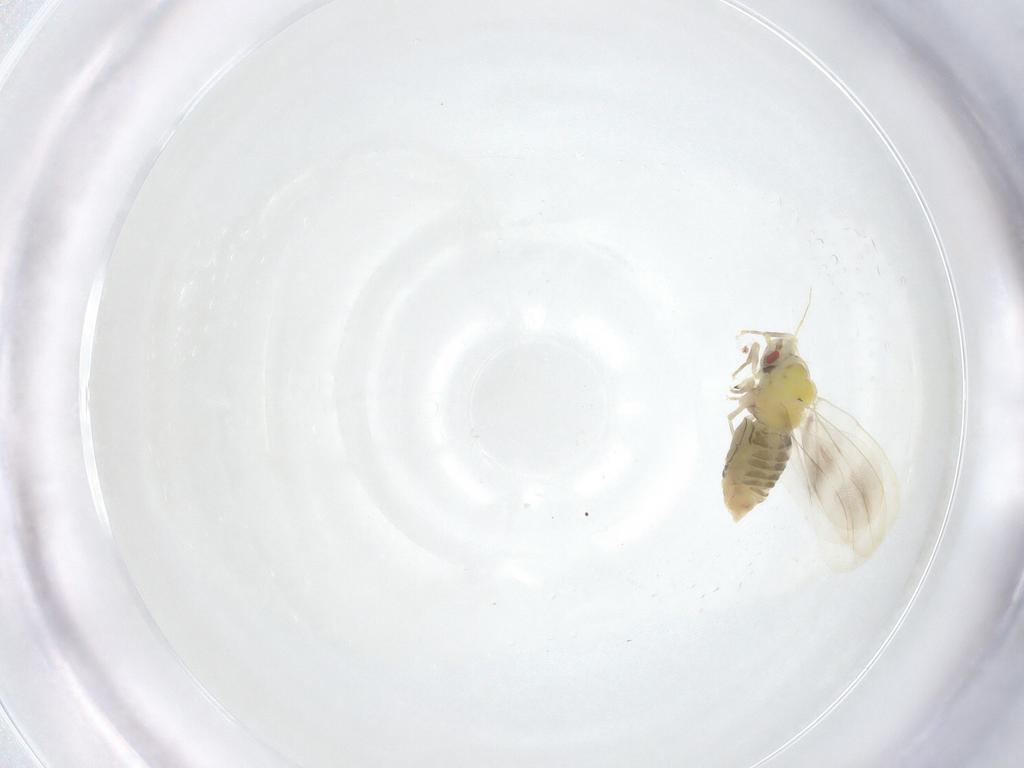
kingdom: Animalia
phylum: Arthropoda
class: Insecta
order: Hemiptera
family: Aleyrodidae
